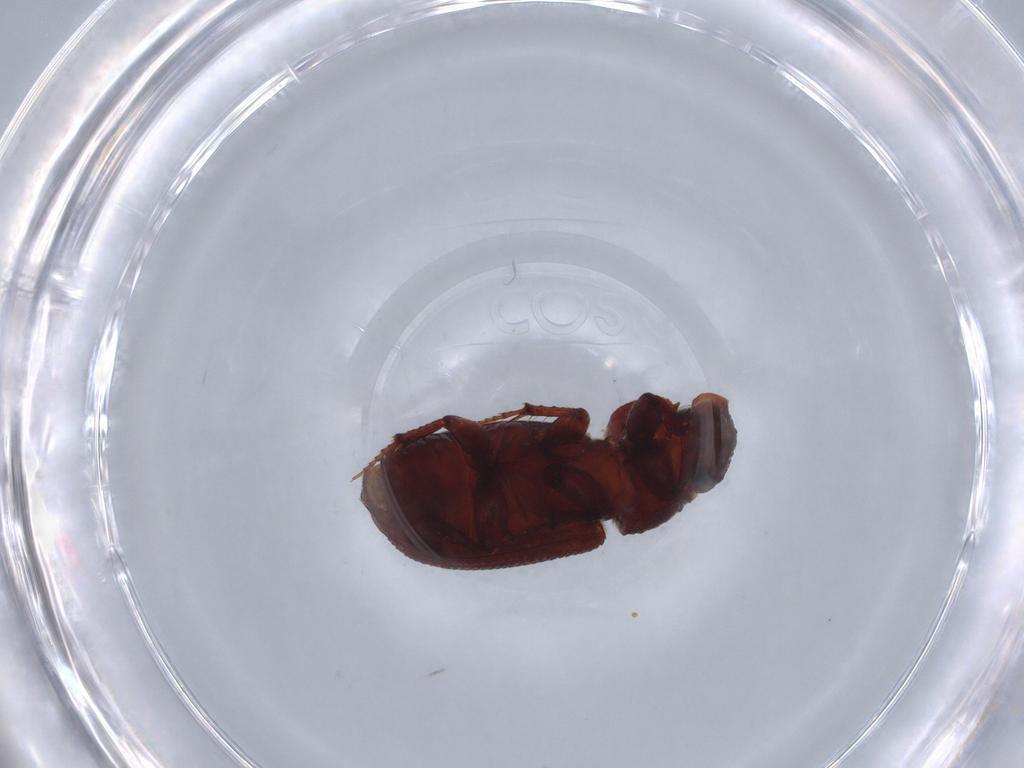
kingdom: Animalia
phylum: Arthropoda
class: Insecta
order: Coleoptera
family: Latridiidae
